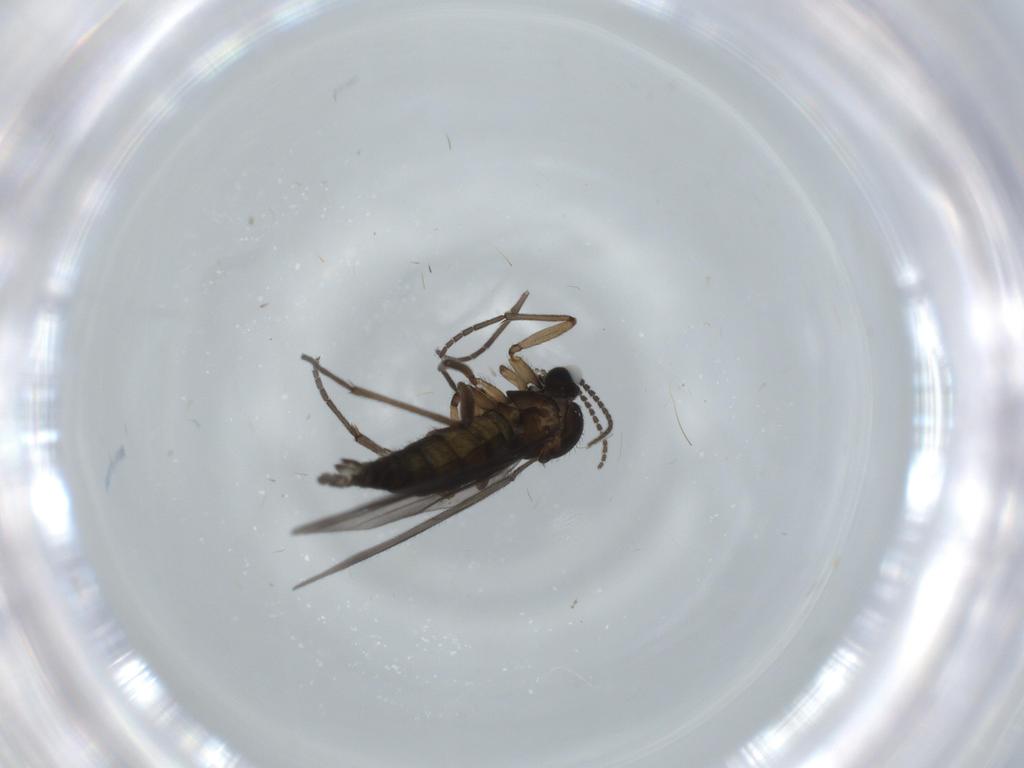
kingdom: Animalia
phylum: Arthropoda
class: Insecta
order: Diptera
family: Sciaridae
